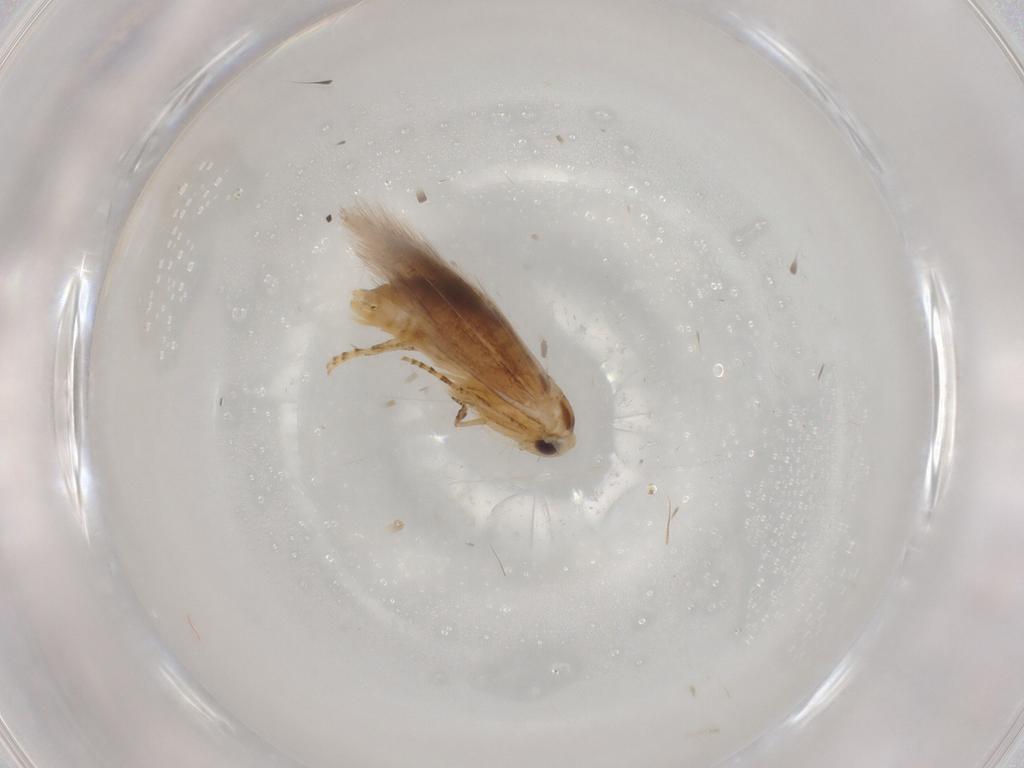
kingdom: Animalia
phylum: Arthropoda
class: Insecta
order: Lepidoptera
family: Nepticulidae
